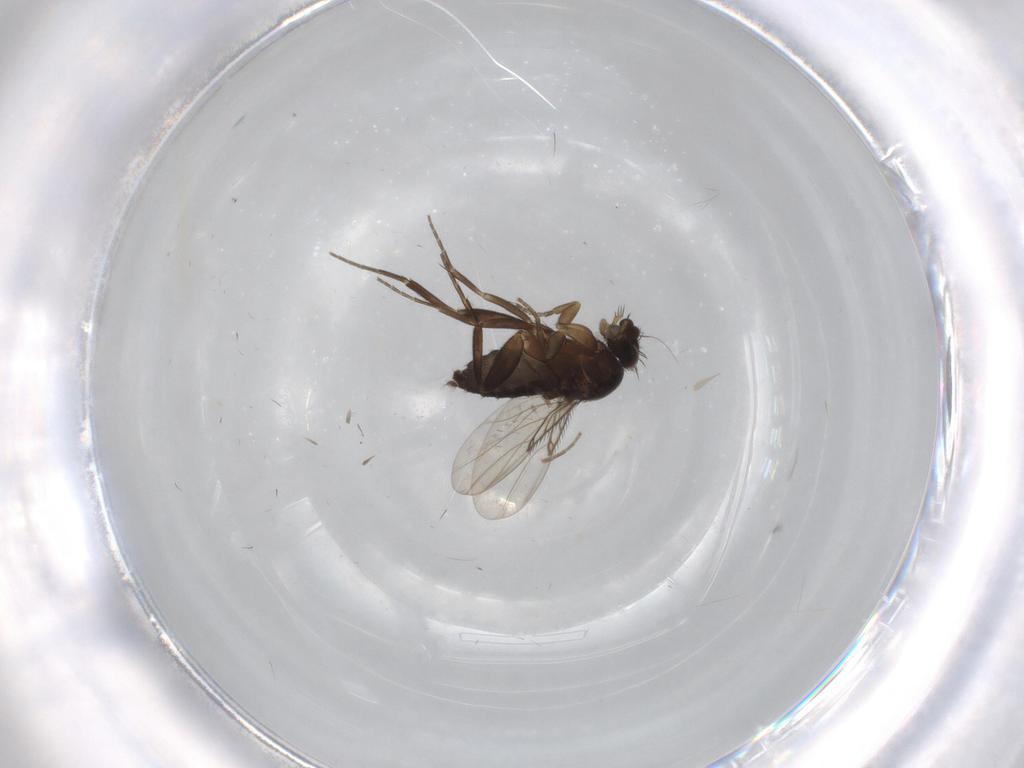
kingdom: Animalia
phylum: Arthropoda
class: Insecta
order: Diptera
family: Phoridae
